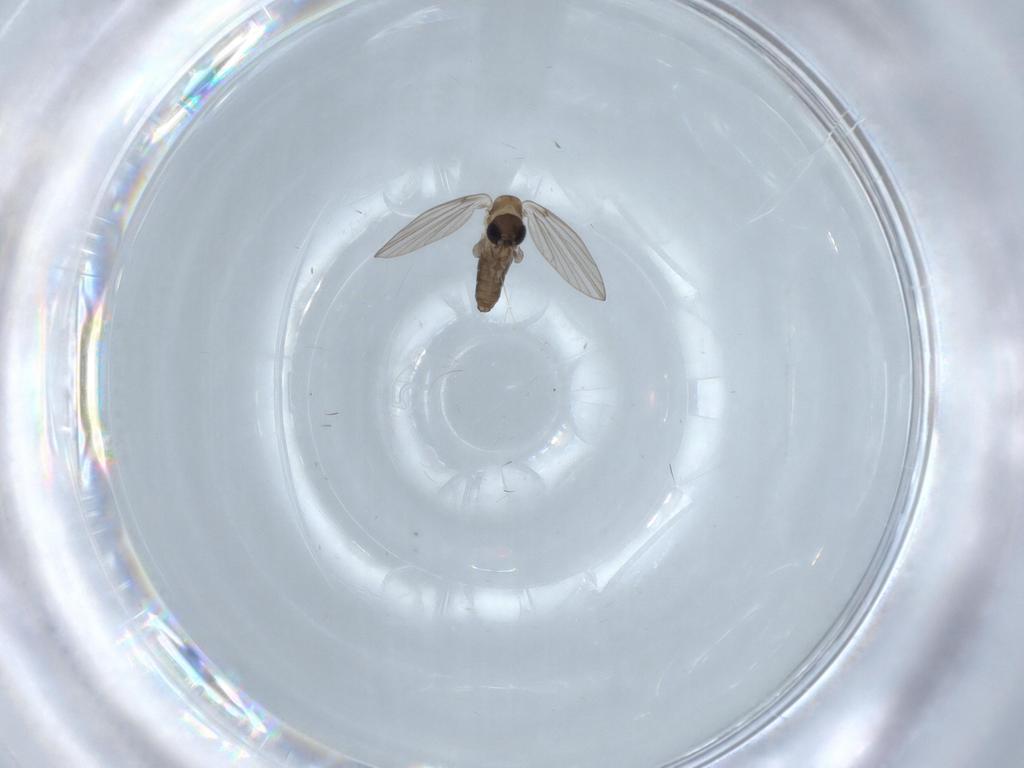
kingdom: Animalia
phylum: Arthropoda
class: Insecta
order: Diptera
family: Psychodidae
